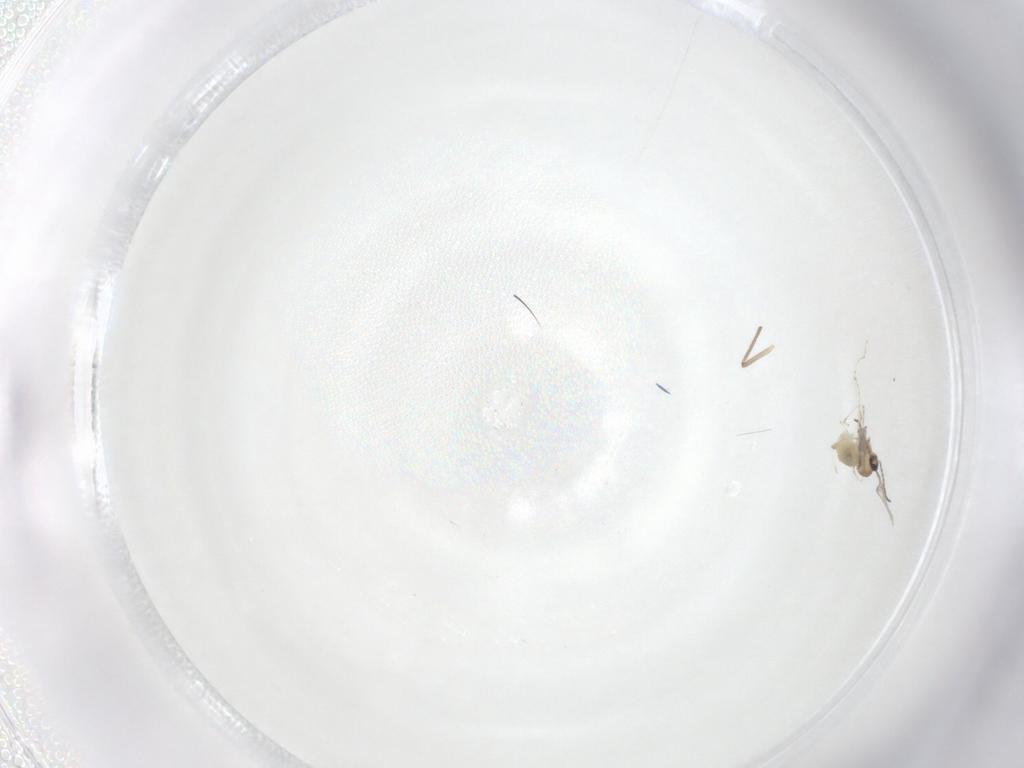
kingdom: Animalia
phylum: Arthropoda
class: Insecta
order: Diptera
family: Cecidomyiidae
